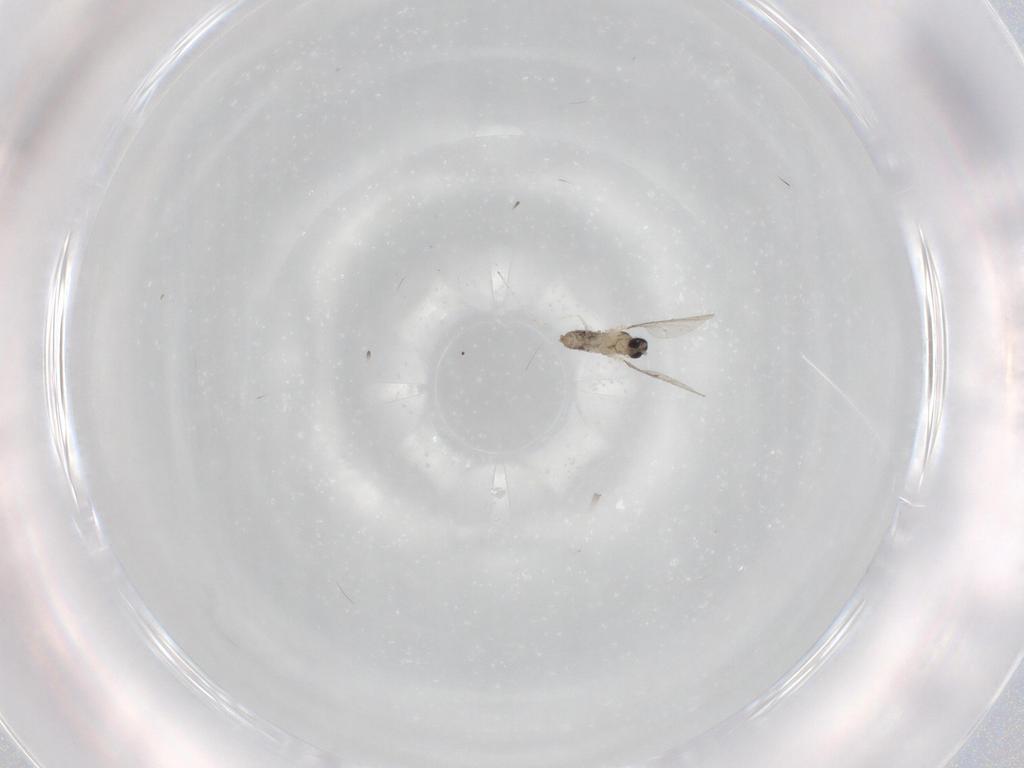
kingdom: Animalia
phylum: Arthropoda
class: Insecta
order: Diptera
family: Cecidomyiidae
